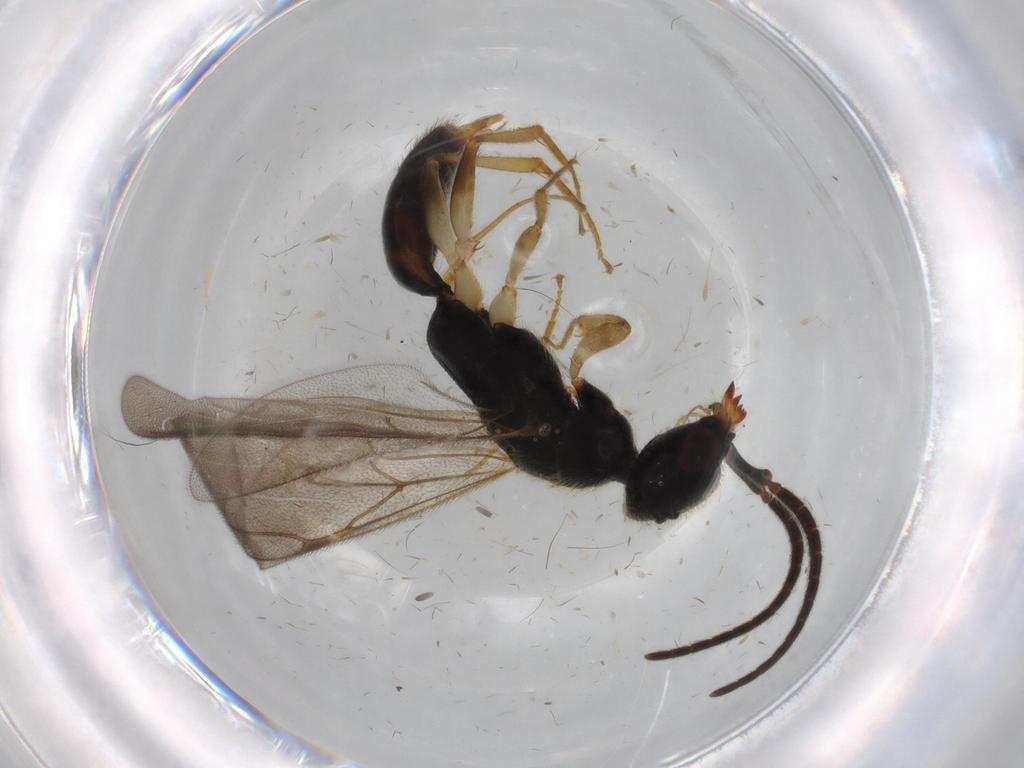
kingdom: Animalia
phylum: Arthropoda
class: Insecta
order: Hymenoptera
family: Bethylidae
